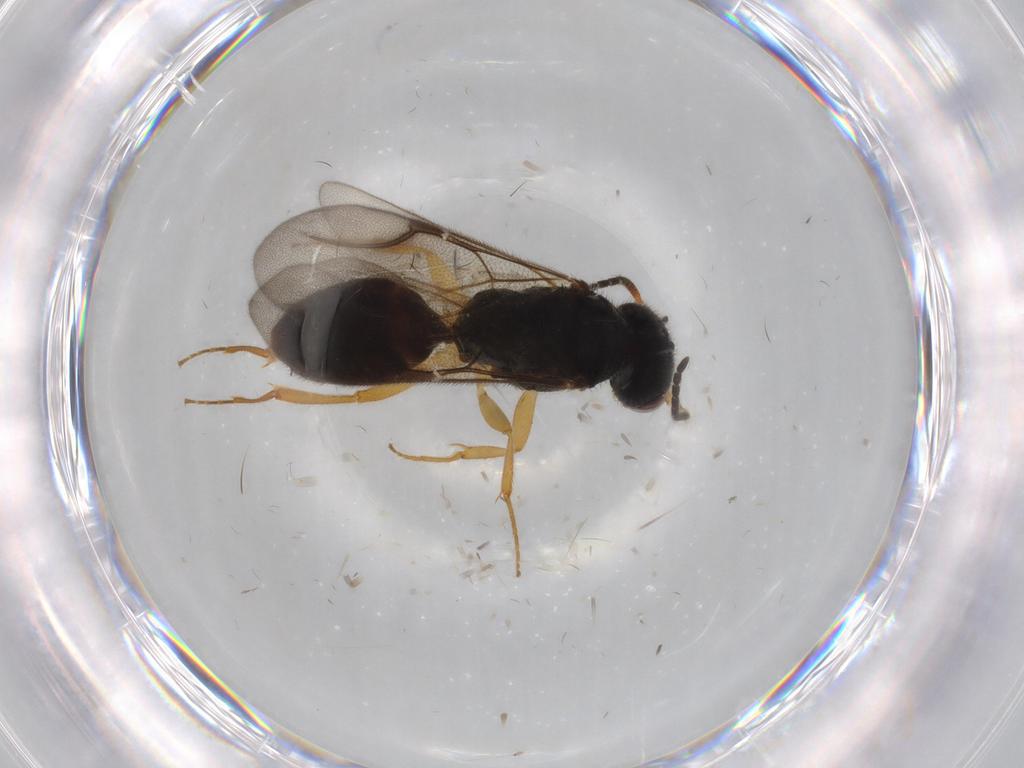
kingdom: Animalia
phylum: Arthropoda
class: Insecta
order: Hymenoptera
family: Bethylidae
